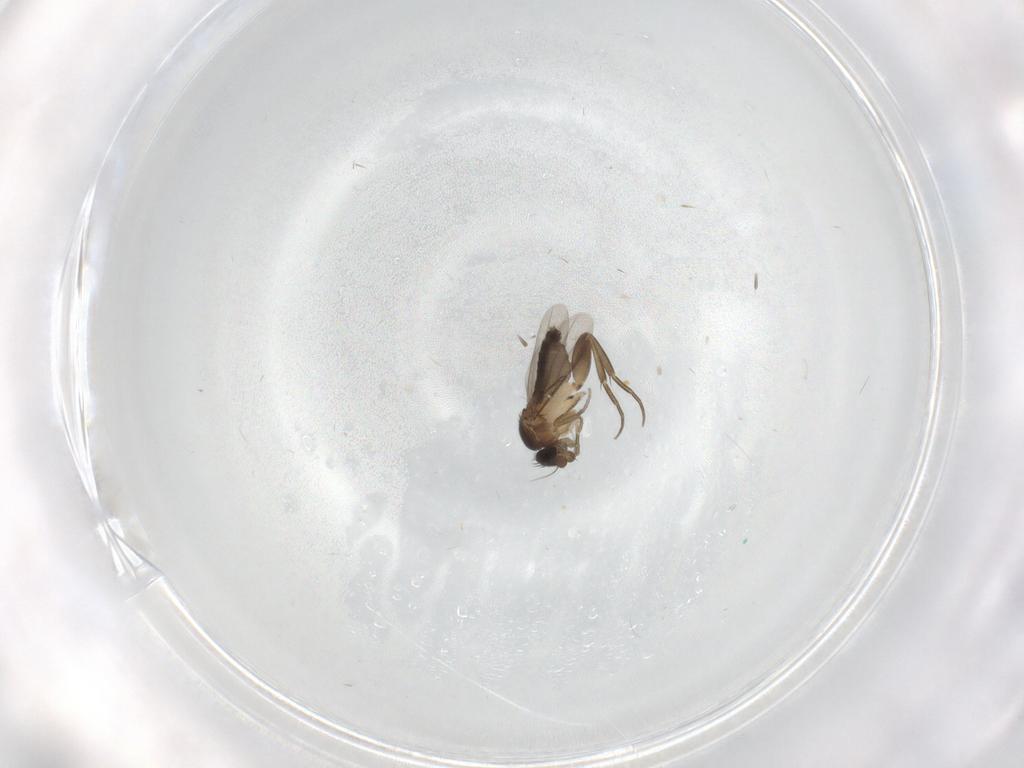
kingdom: Animalia
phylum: Arthropoda
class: Insecta
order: Diptera
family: Phoridae
